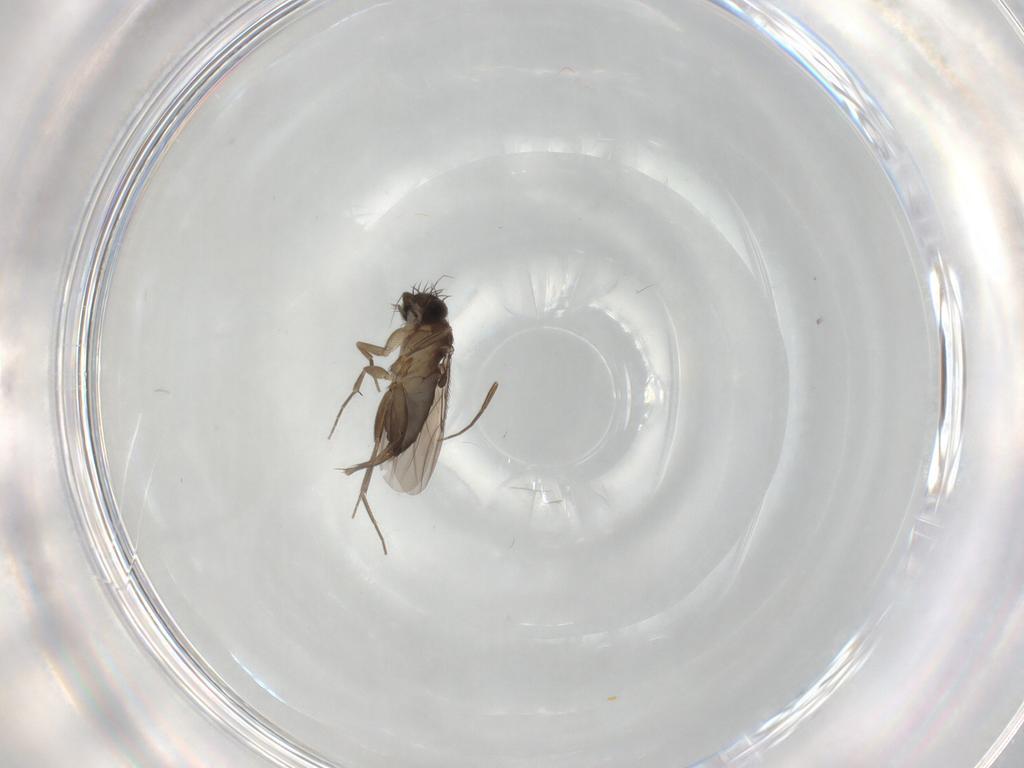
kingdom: Animalia
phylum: Arthropoda
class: Insecta
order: Diptera
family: Phoridae
